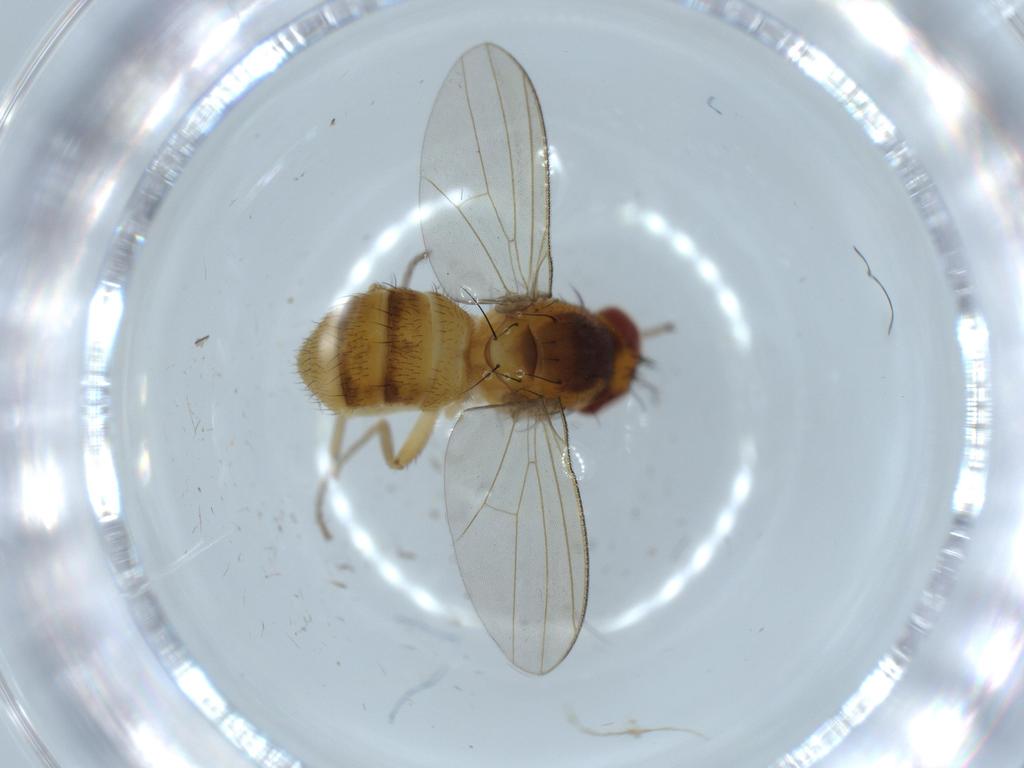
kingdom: Animalia
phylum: Arthropoda
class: Insecta
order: Diptera
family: Lauxaniidae
